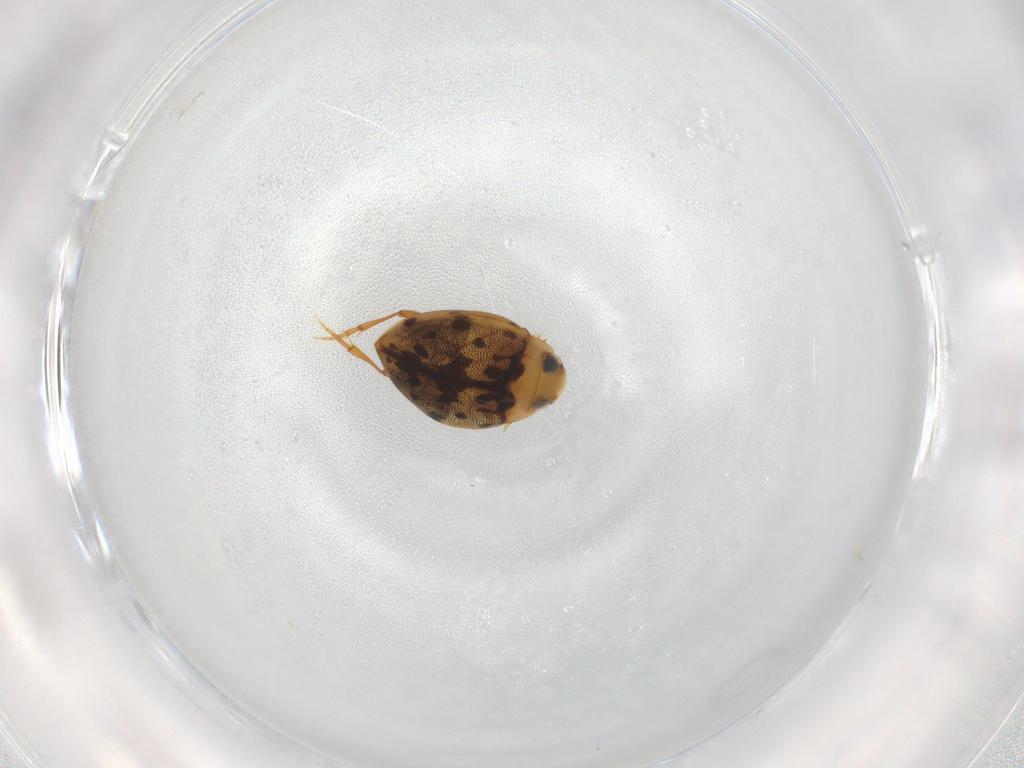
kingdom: Animalia
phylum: Arthropoda
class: Insecta
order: Coleoptera
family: Dytiscidae
